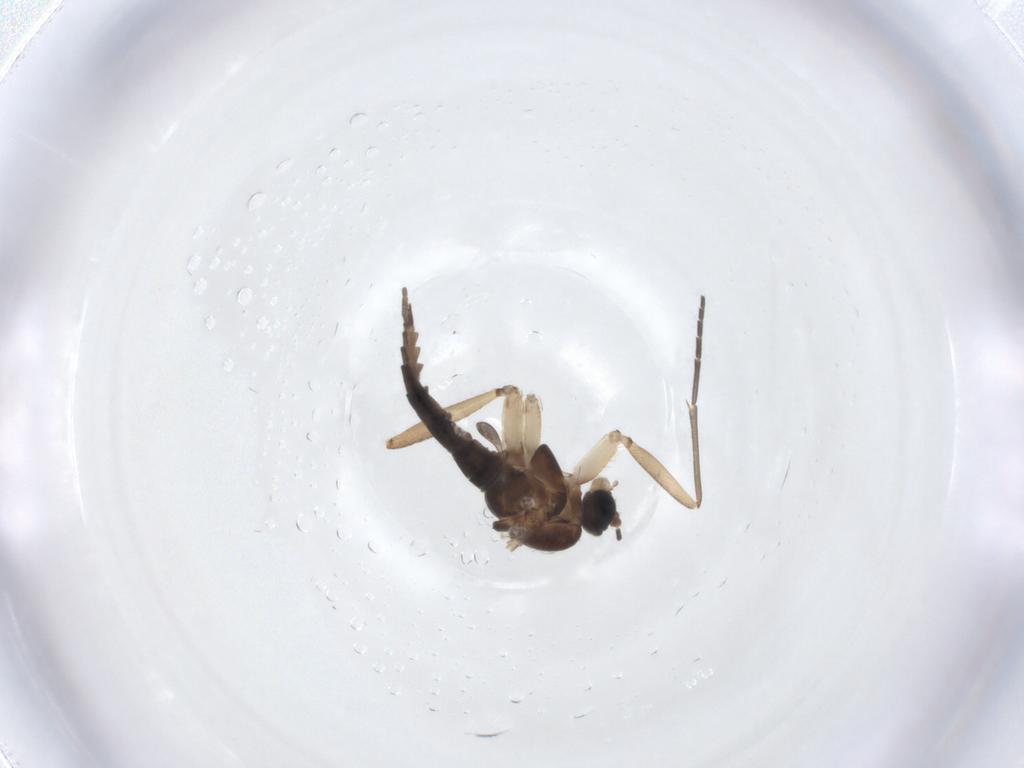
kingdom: Animalia
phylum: Arthropoda
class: Insecta
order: Diptera
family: Sciaridae
